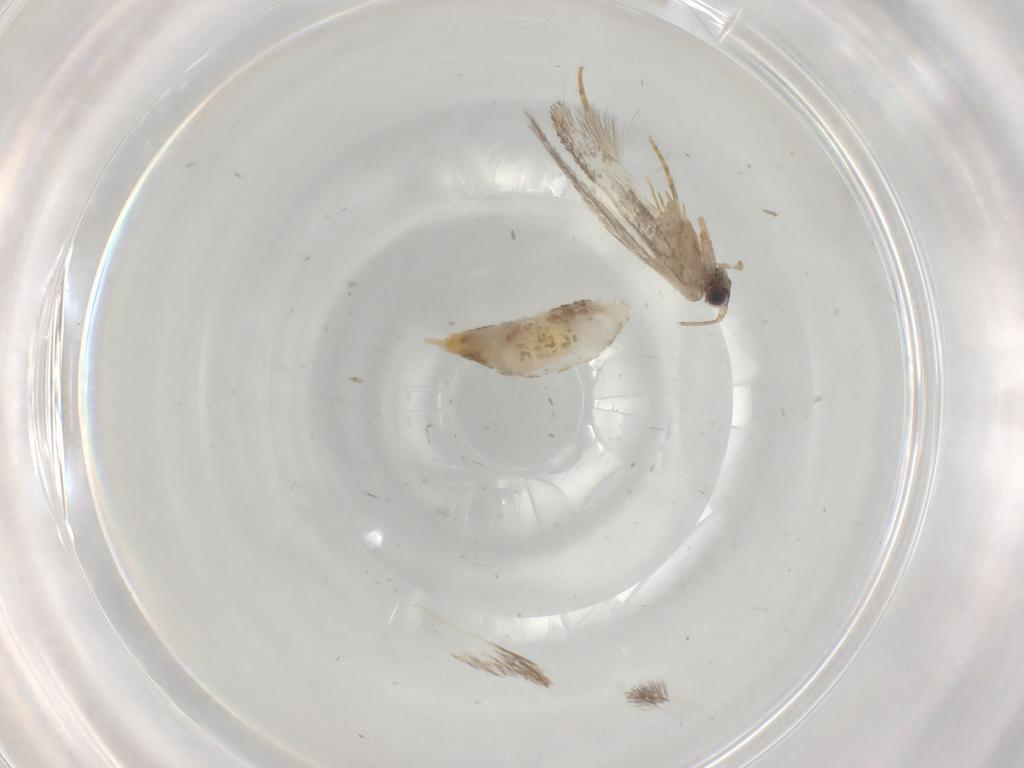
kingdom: Animalia
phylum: Arthropoda
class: Insecta
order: Lepidoptera
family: Tineidae
